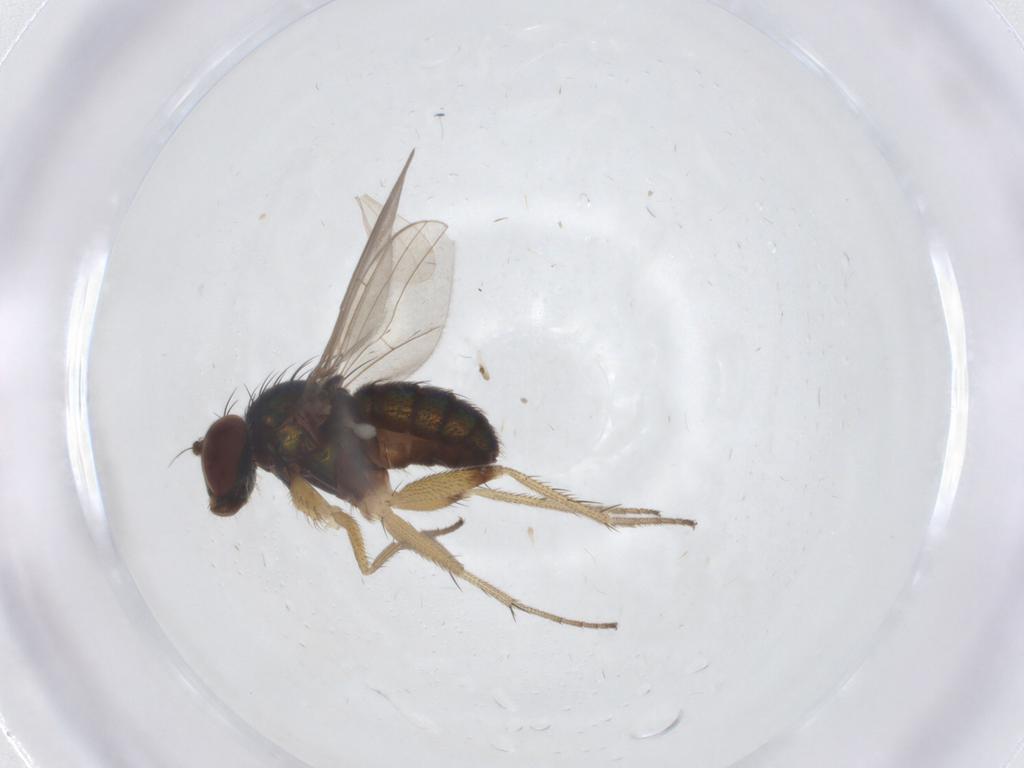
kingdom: Animalia
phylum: Arthropoda
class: Insecta
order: Diptera
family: Dolichopodidae
